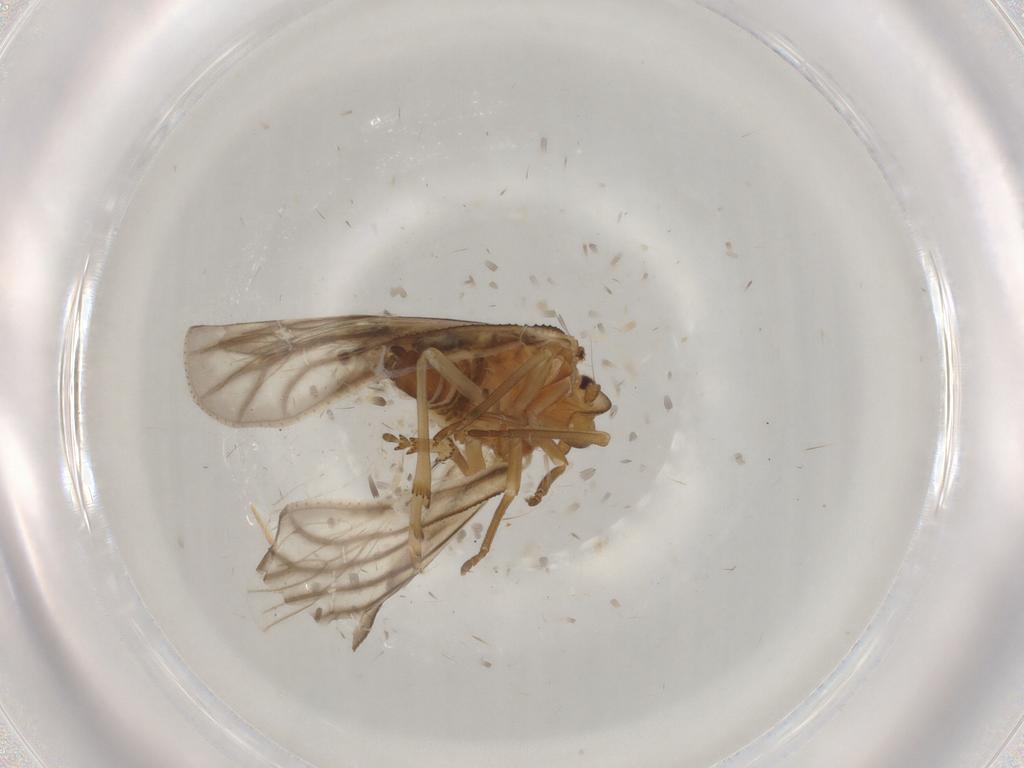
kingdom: Animalia
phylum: Arthropoda
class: Insecta
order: Hemiptera
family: Meenoplidae
